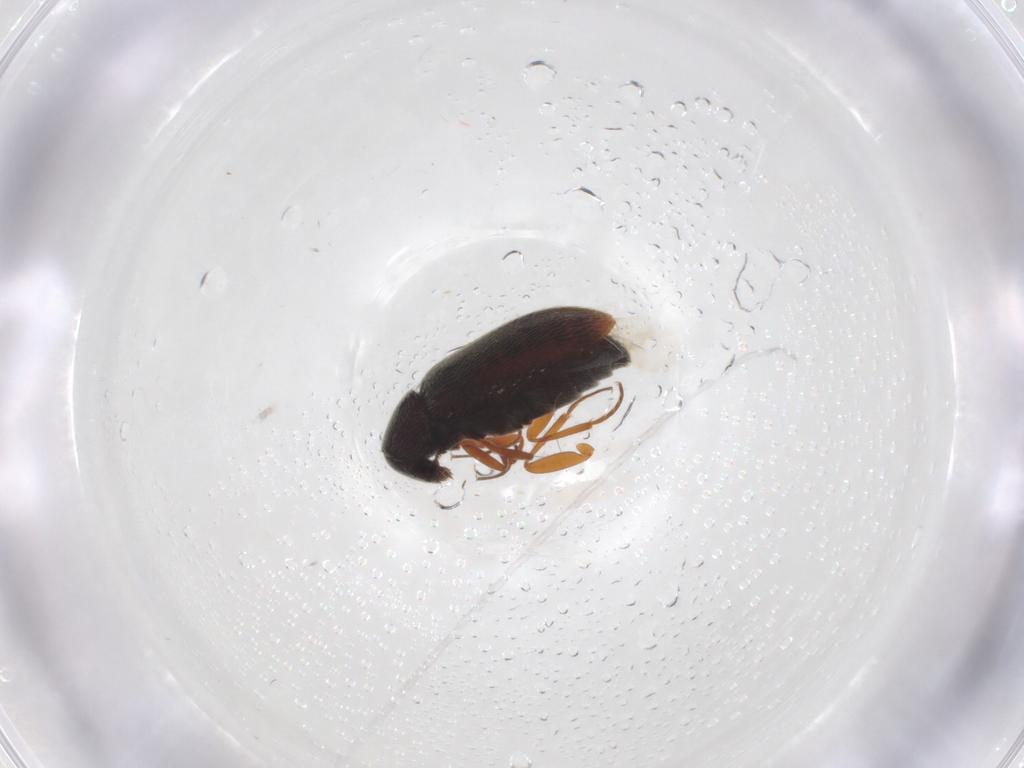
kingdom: Animalia
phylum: Arthropoda
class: Insecta
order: Coleoptera
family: Rhadalidae
